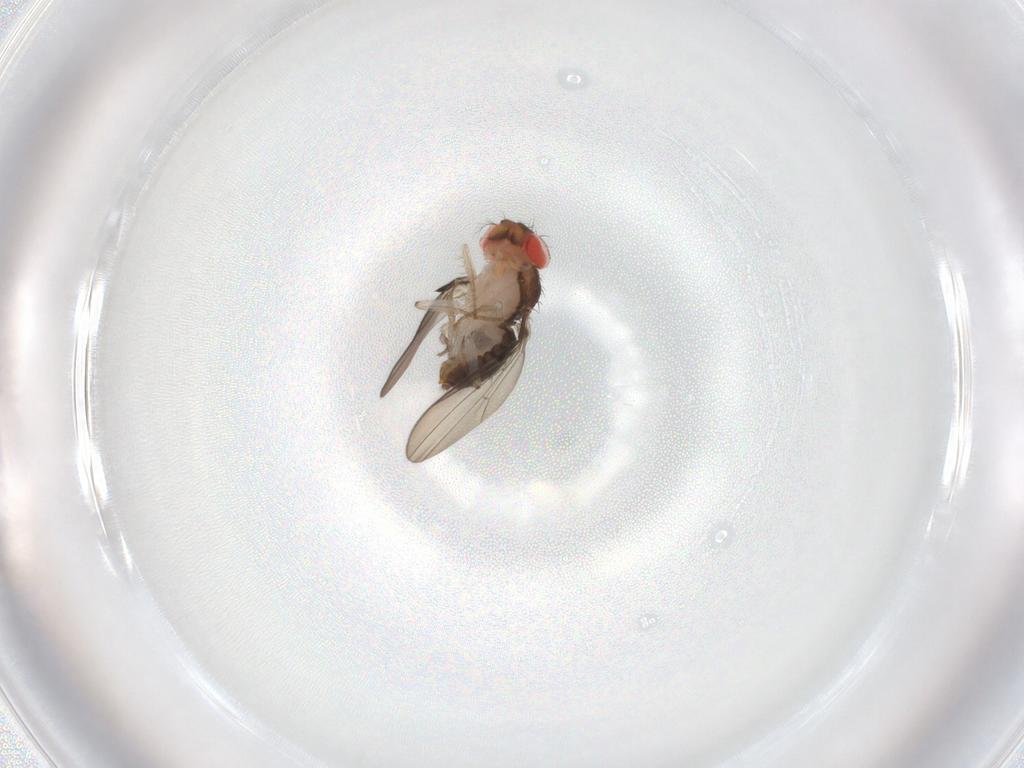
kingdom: Animalia
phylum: Arthropoda
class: Insecta
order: Diptera
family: Drosophilidae
